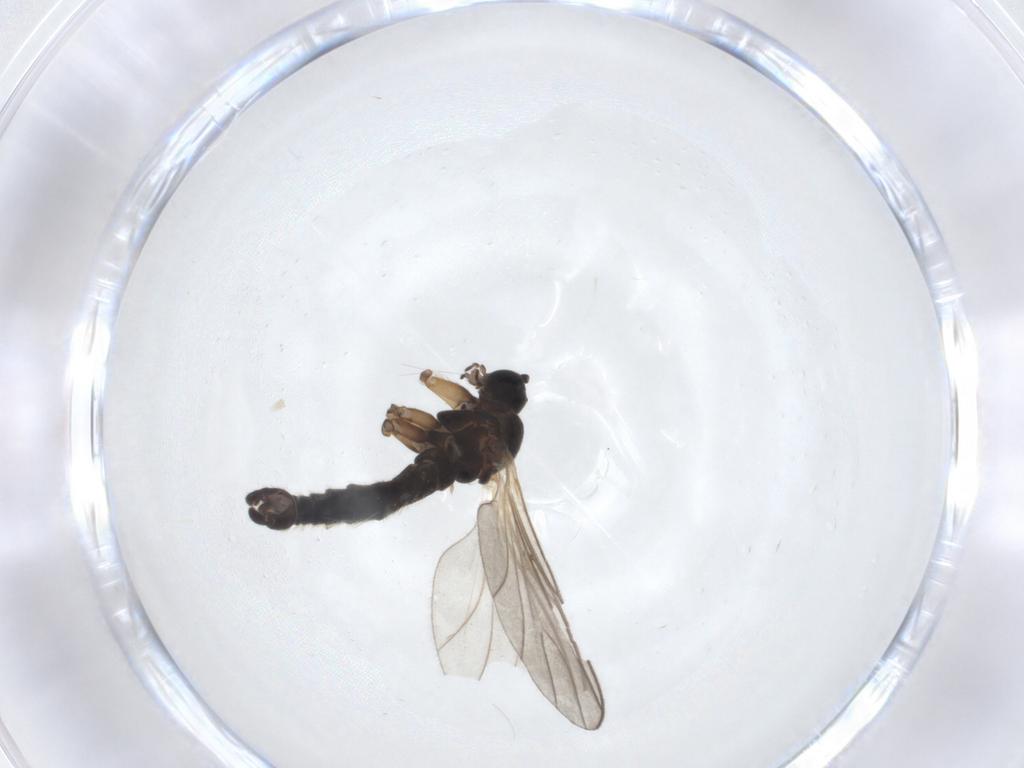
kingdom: Animalia
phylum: Arthropoda
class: Insecta
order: Diptera
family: Sciaridae
